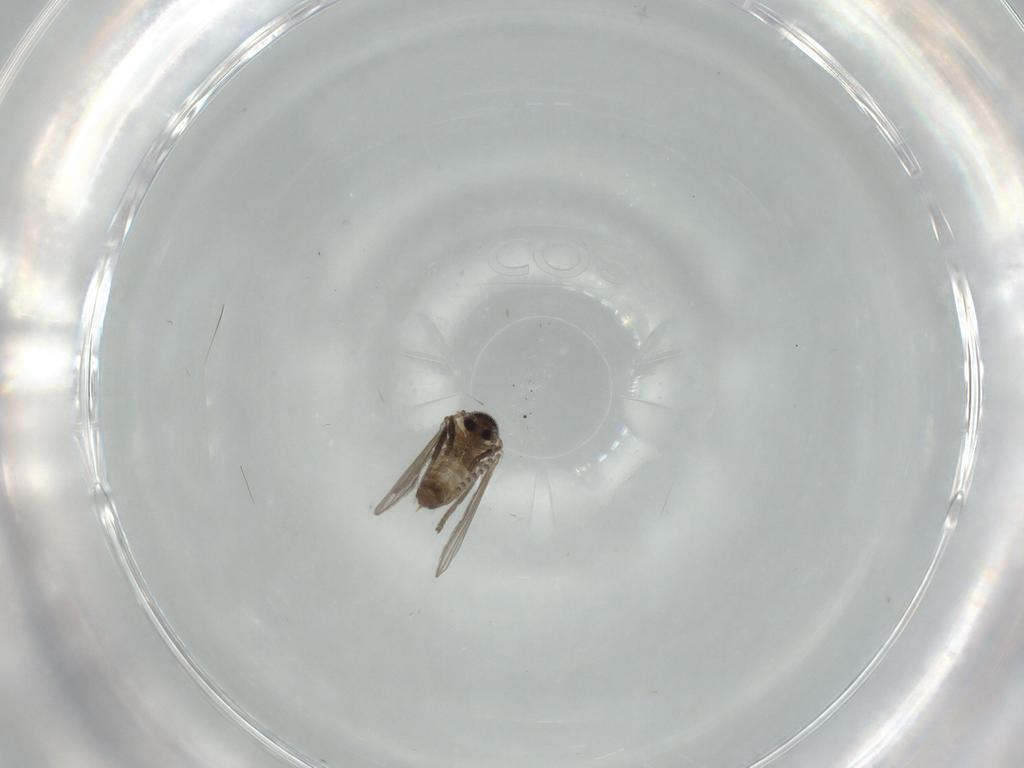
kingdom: Animalia
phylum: Arthropoda
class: Insecta
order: Diptera
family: Psychodidae
